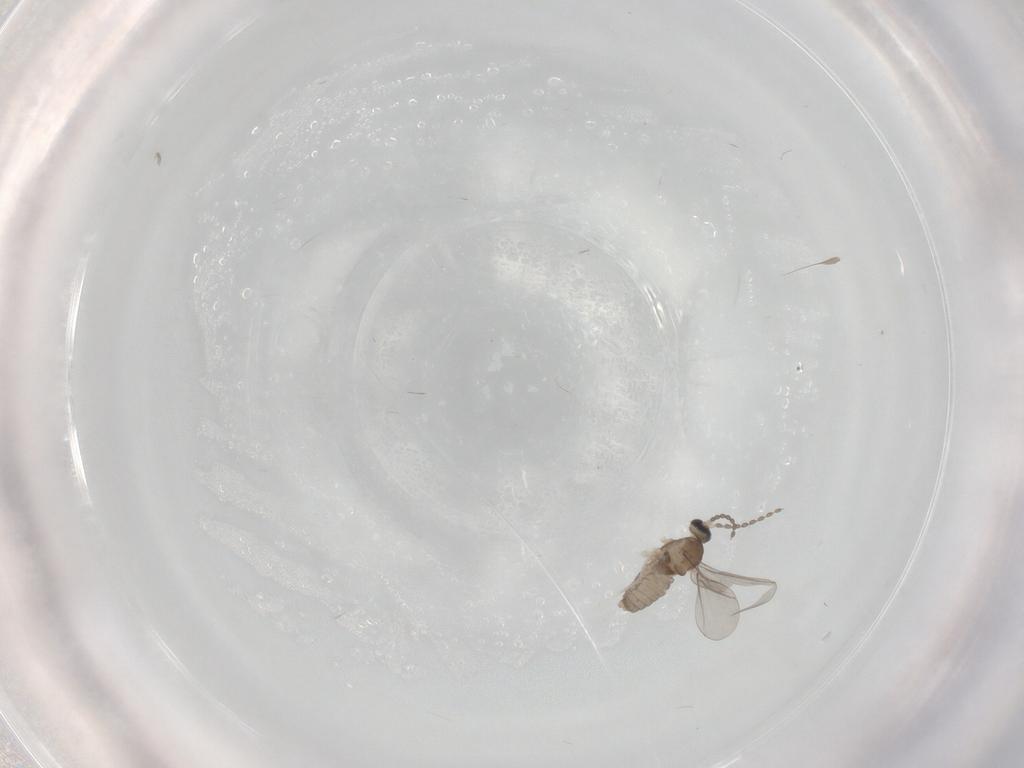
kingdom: Animalia
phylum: Arthropoda
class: Insecta
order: Diptera
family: Cecidomyiidae
